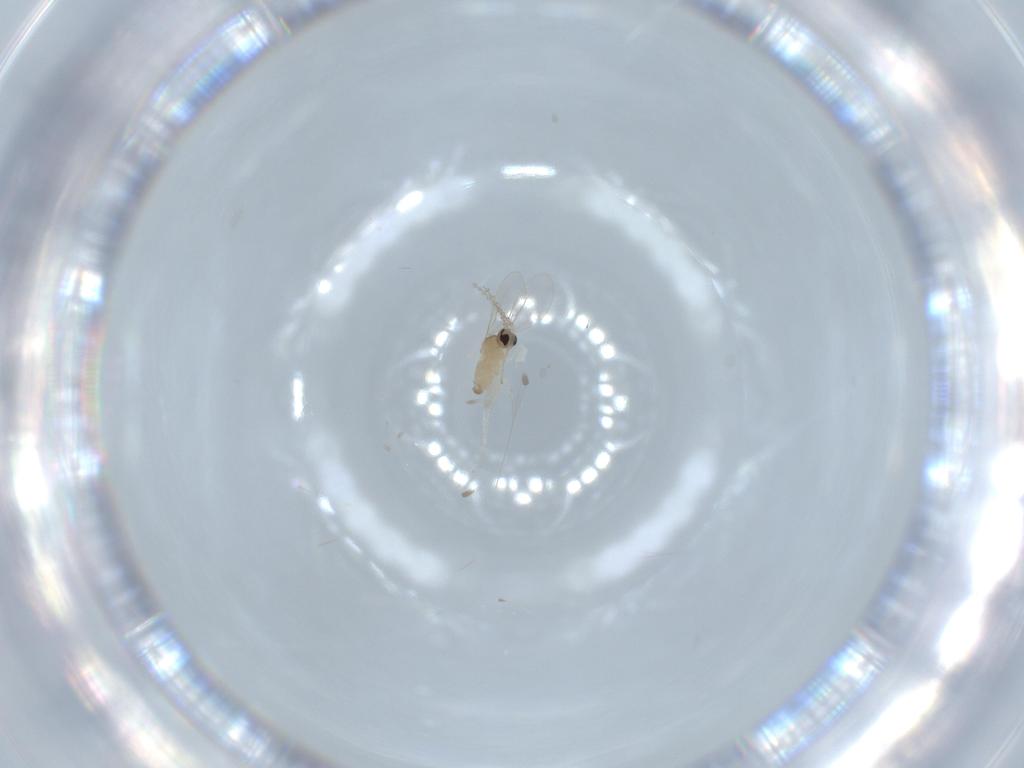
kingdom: Animalia
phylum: Arthropoda
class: Insecta
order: Diptera
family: Cecidomyiidae
